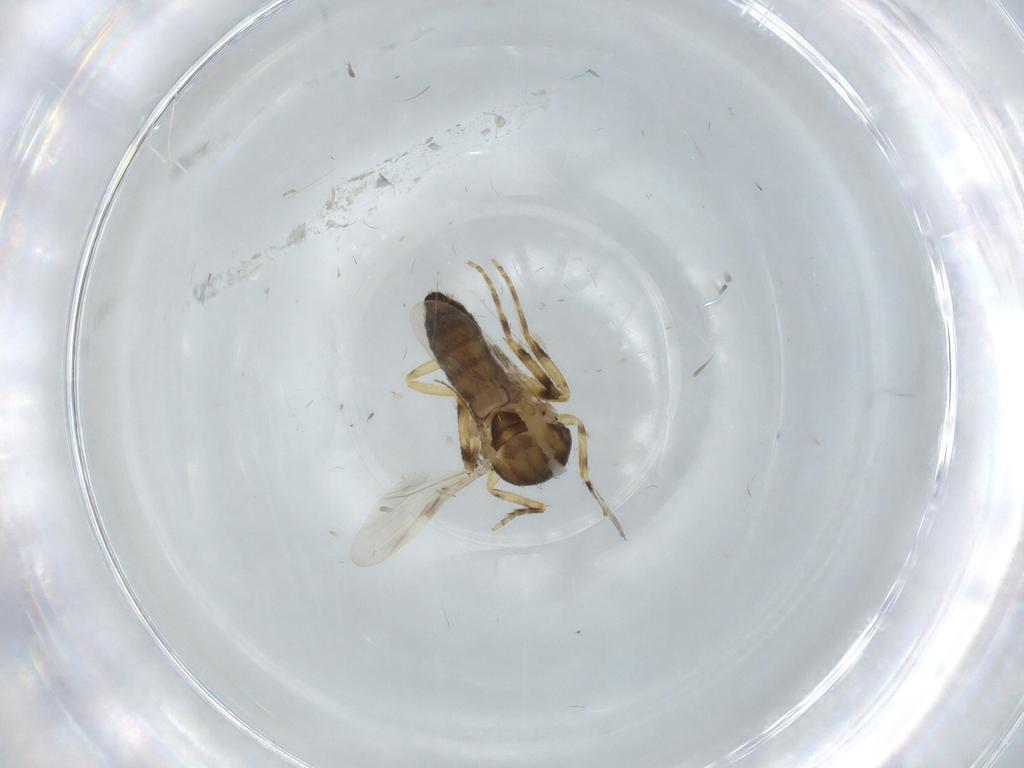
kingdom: Animalia
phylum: Arthropoda
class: Insecta
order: Diptera
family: Ceratopogonidae
